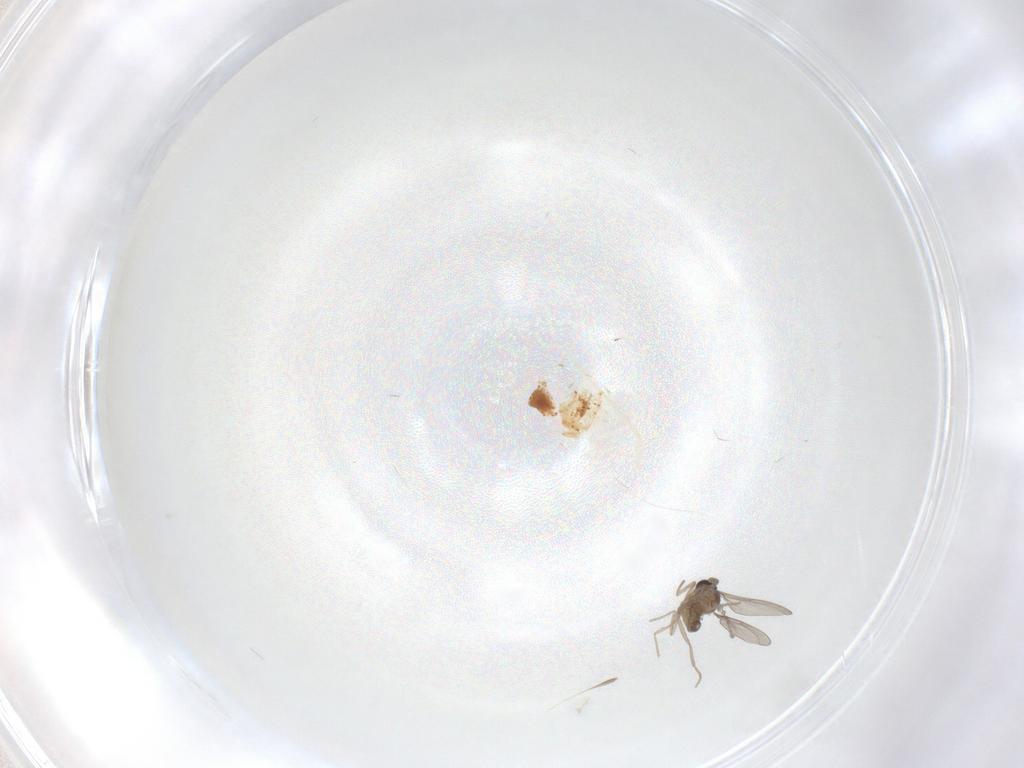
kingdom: Animalia
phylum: Arthropoda
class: Insecta
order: Diptera
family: Cecidomyiidae
